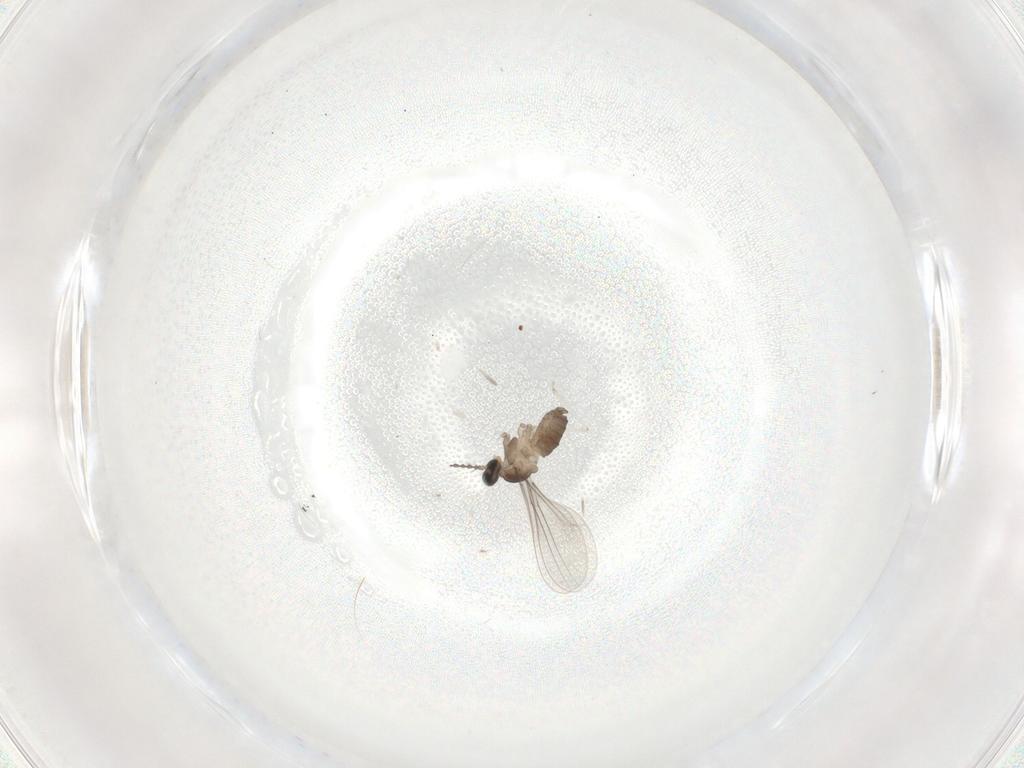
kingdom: Animalia
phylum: Arthropoda
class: Insecta
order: Diptera
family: Cecidomyiidae
